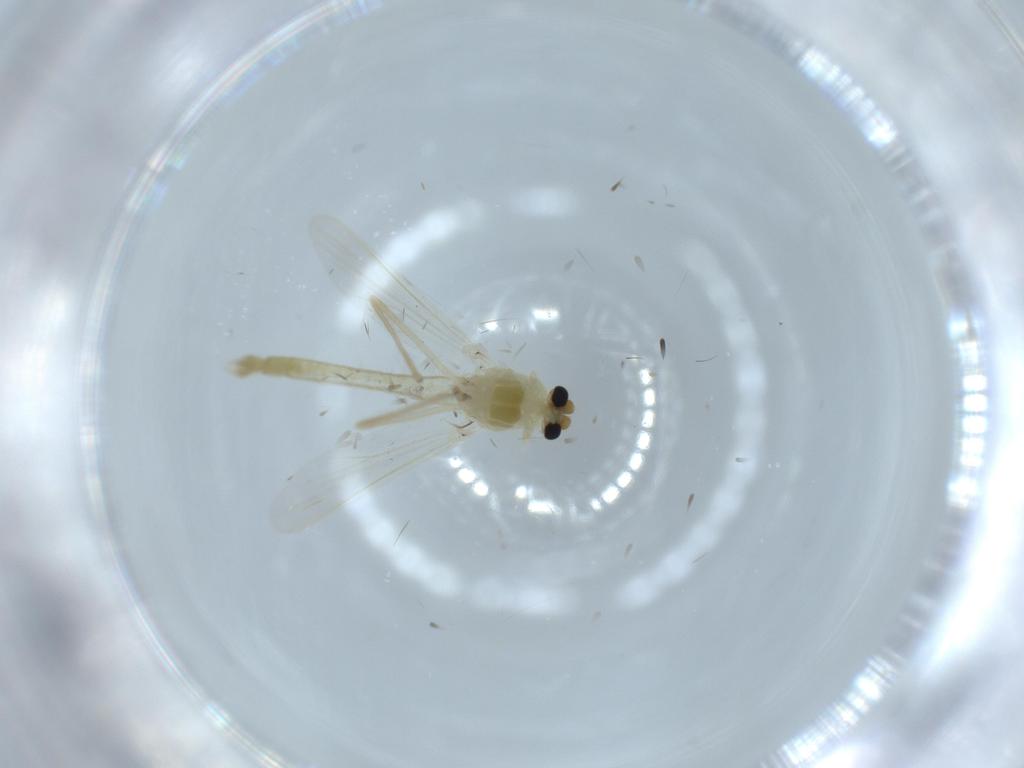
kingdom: Animalia
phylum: Arthropoda
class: Insecta
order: Diptera
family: Chironomidae
